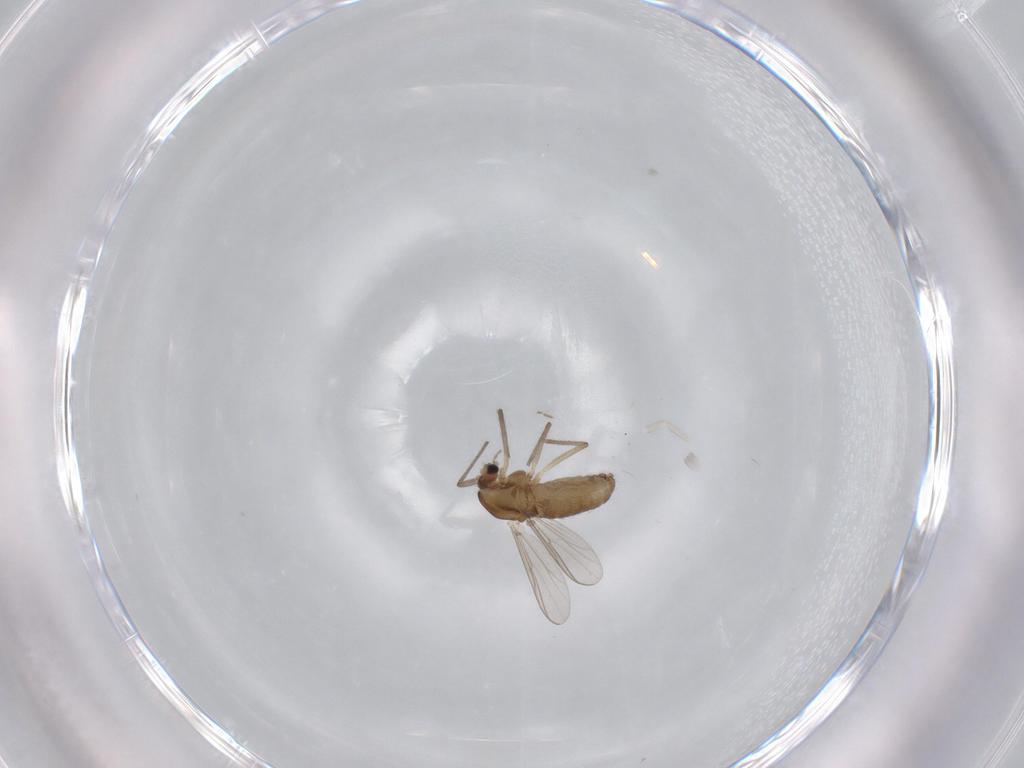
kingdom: Animalia
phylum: Arthropoda
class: Insecta
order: Diptera
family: Chironomidae
